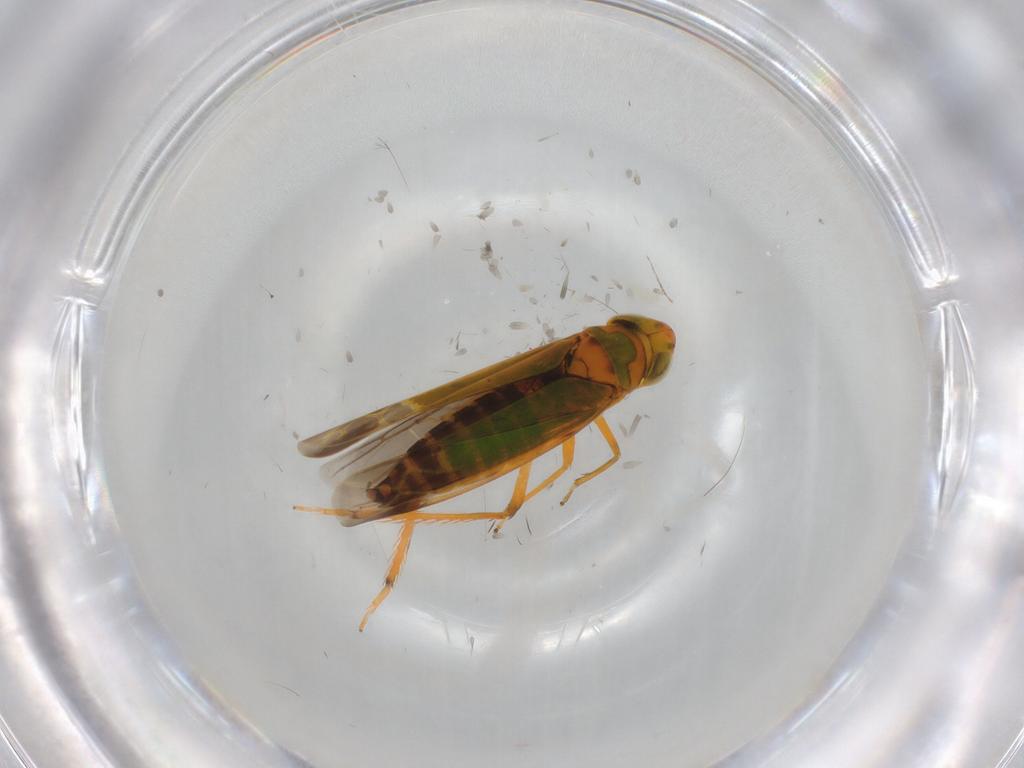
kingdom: Animalia
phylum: Arthropoda
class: Insecta
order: Hemiptera
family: Cicadellidae
